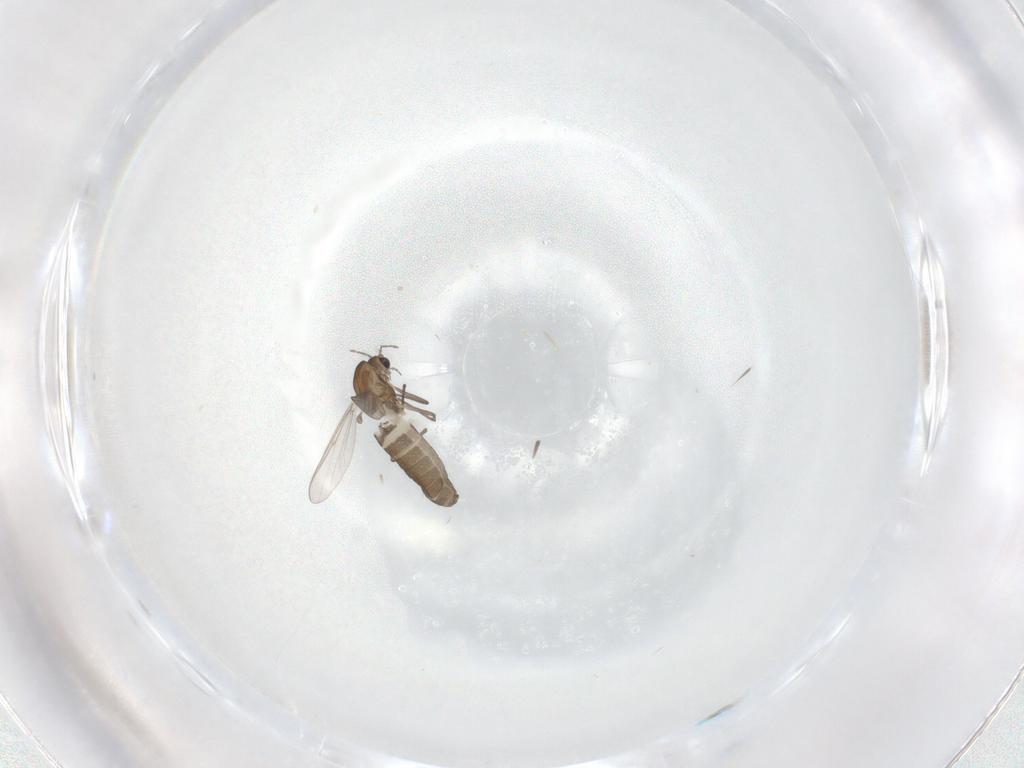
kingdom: Animalia
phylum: Arthropoda
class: Insecta
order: Diptera
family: Chironomidae
